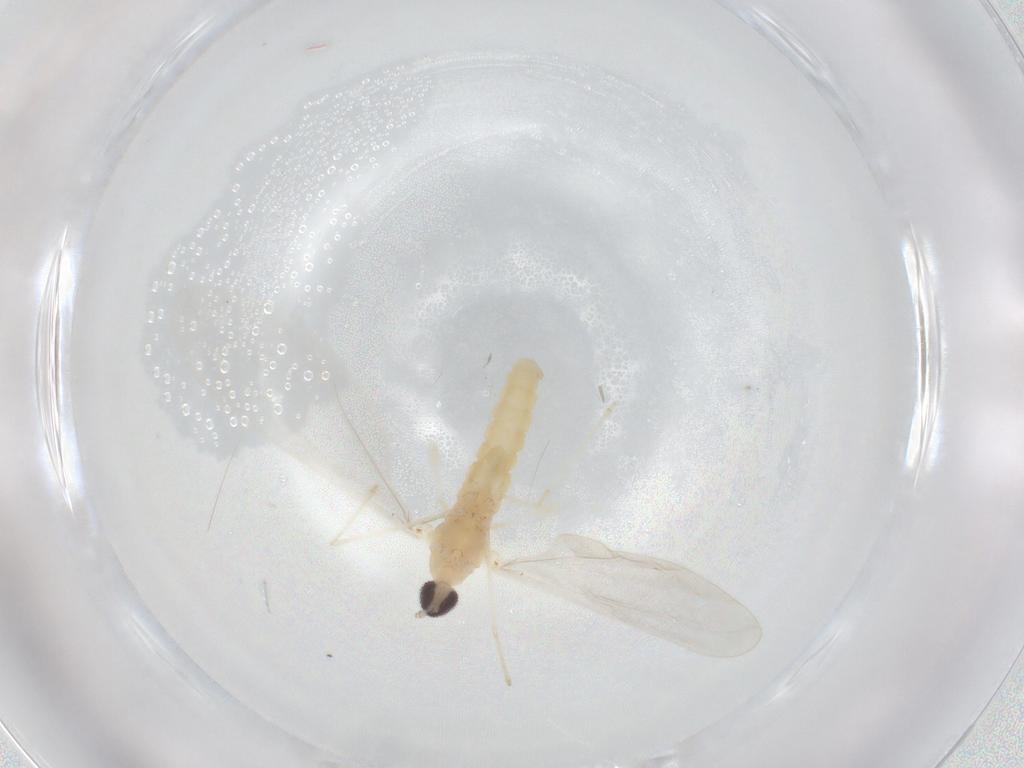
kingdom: Animalia
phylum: Arthropoda
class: Insecta
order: Diptera
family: Cecidomyiidae
